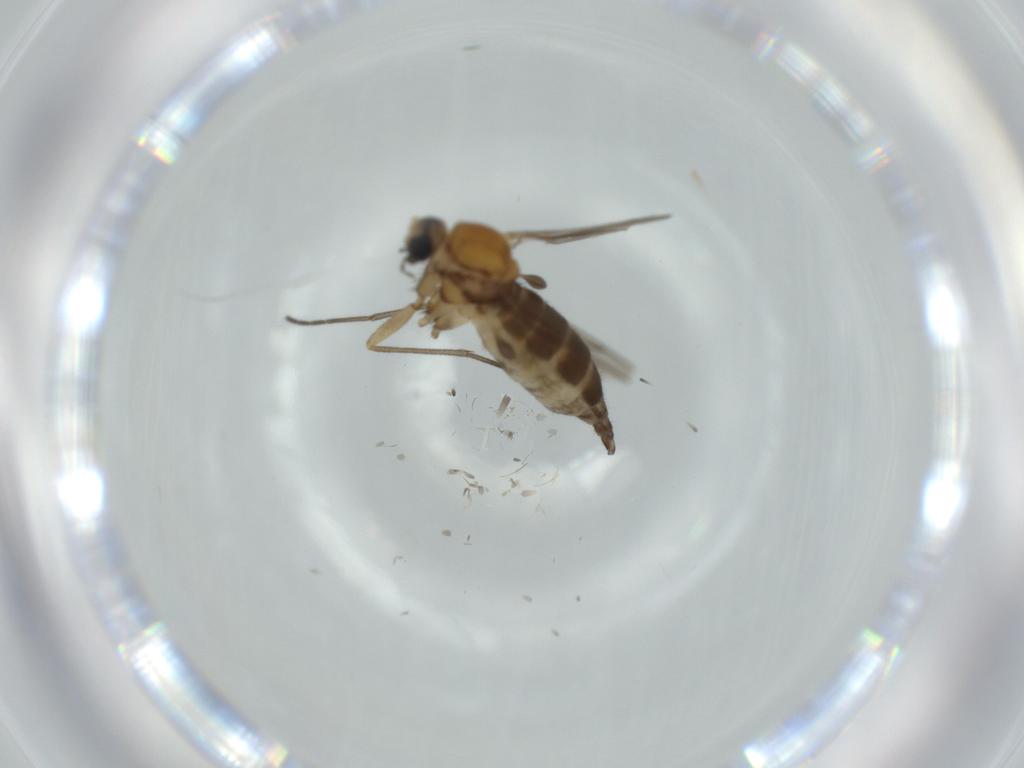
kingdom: Animalia
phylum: Arthropoda
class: Insecta
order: Diptera
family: Sciaridae
